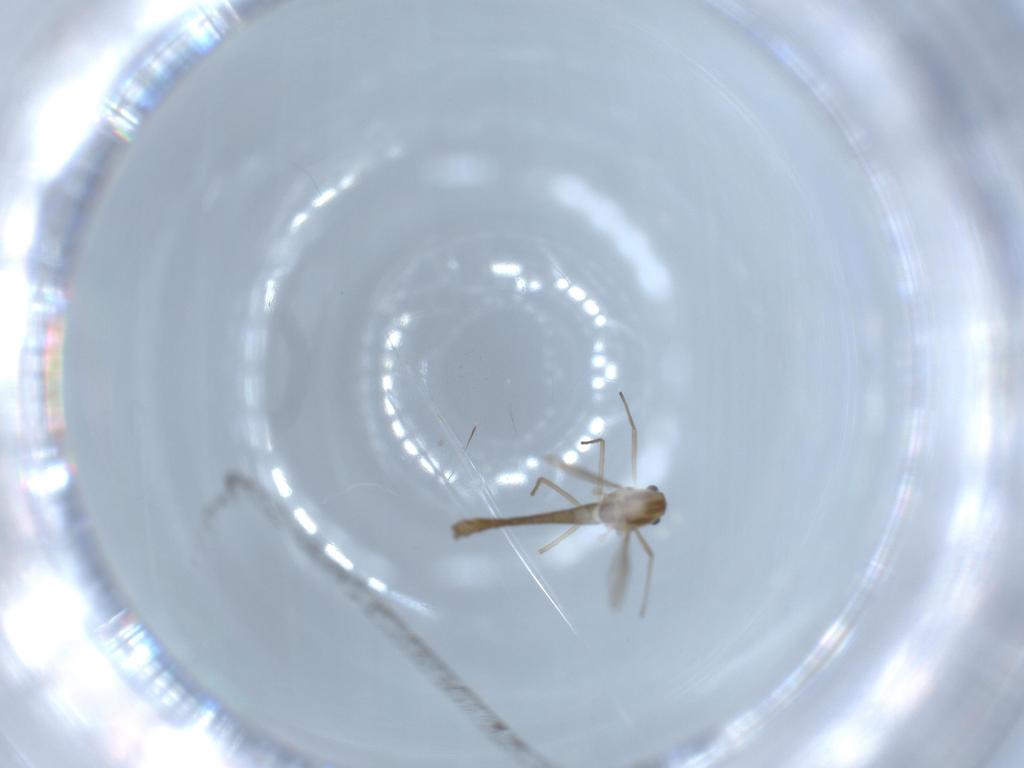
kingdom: Animalia
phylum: Arthropoda
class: Insecta
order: Diptera
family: Chironomidae
